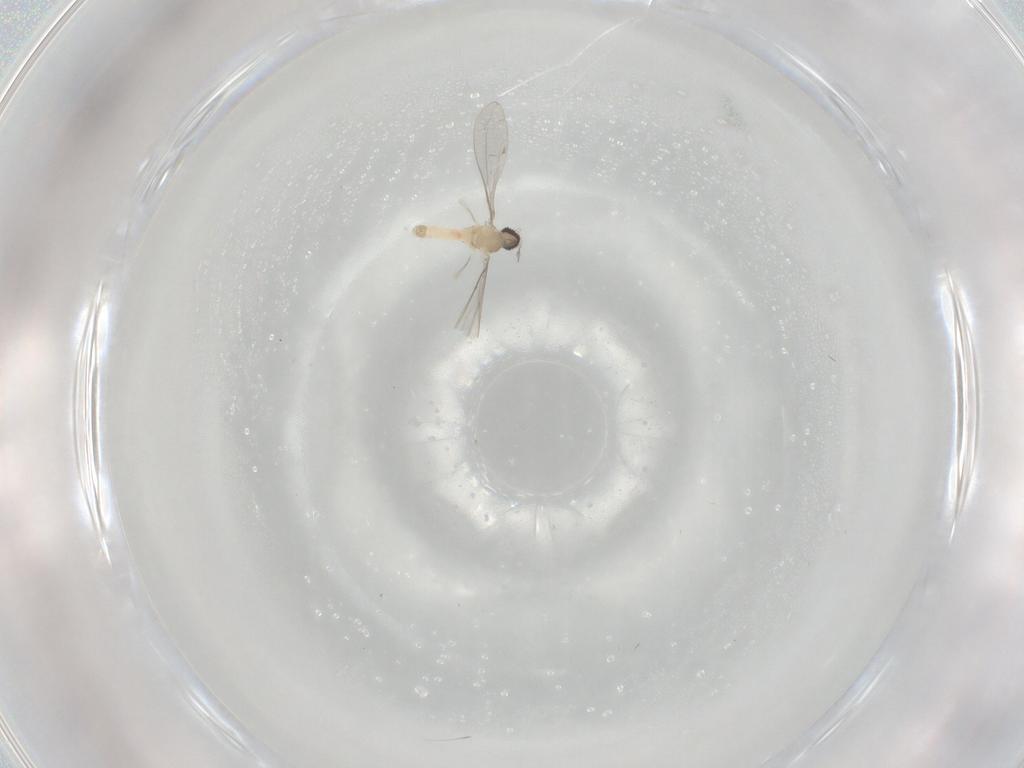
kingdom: Animalia
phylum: Arthropoda
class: Insecta
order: Diptera
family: Cecidomyiidae
